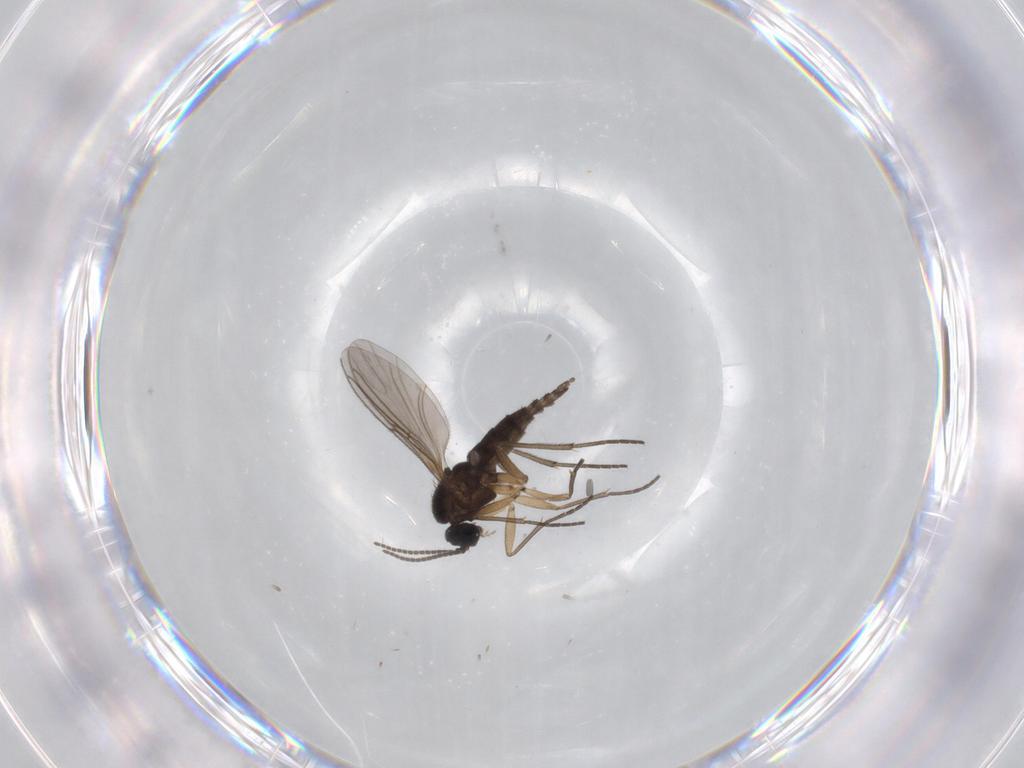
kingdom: Animalia
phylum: Arthropoda
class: Insecta
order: Diptera
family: Sciaridae
